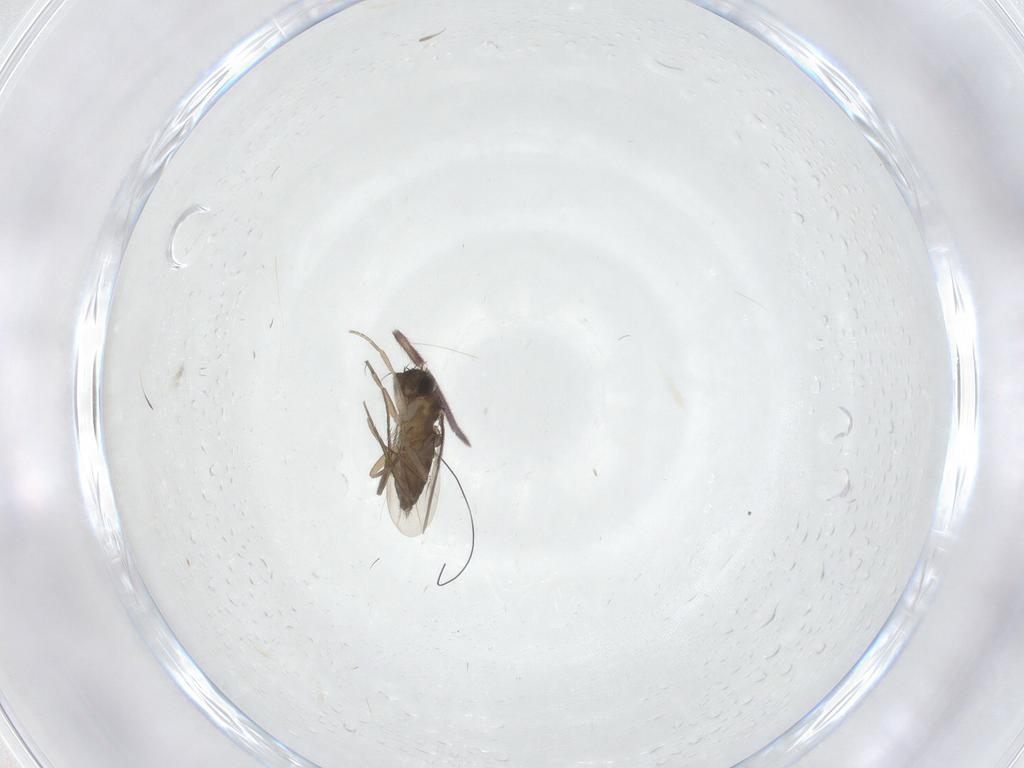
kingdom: Animalia
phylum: Arthropoda
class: Insecta
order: Diptera
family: Phoridae
